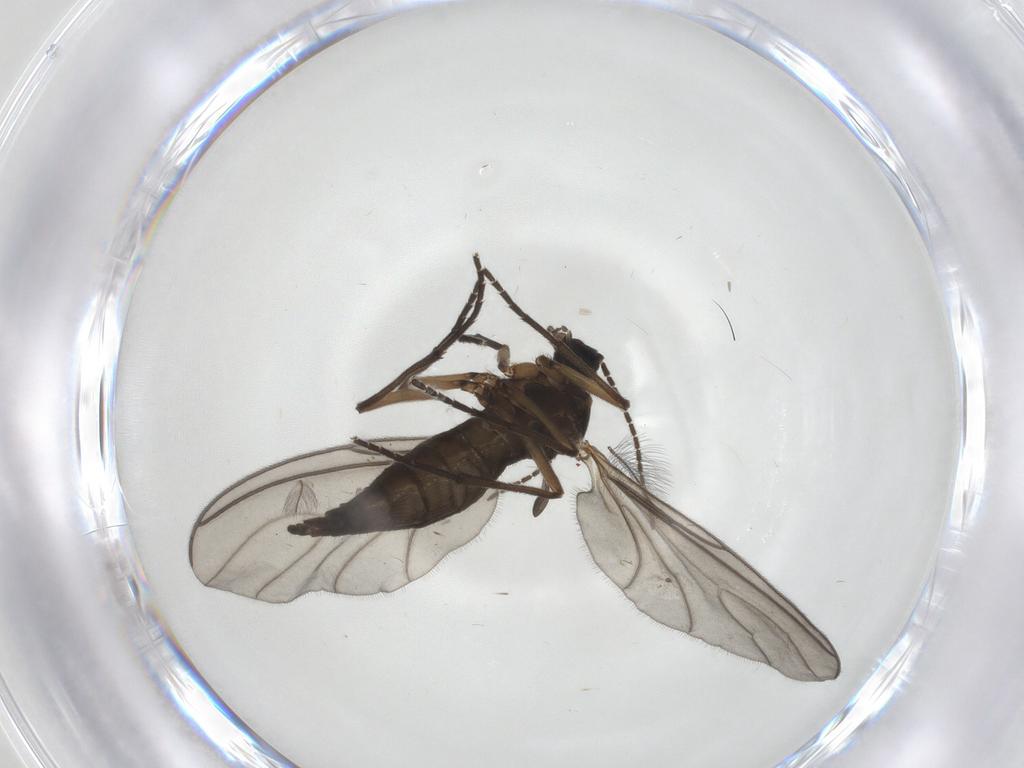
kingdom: Animalia
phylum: Arthropoda
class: Insecta
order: Diptera
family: Sciaridae
